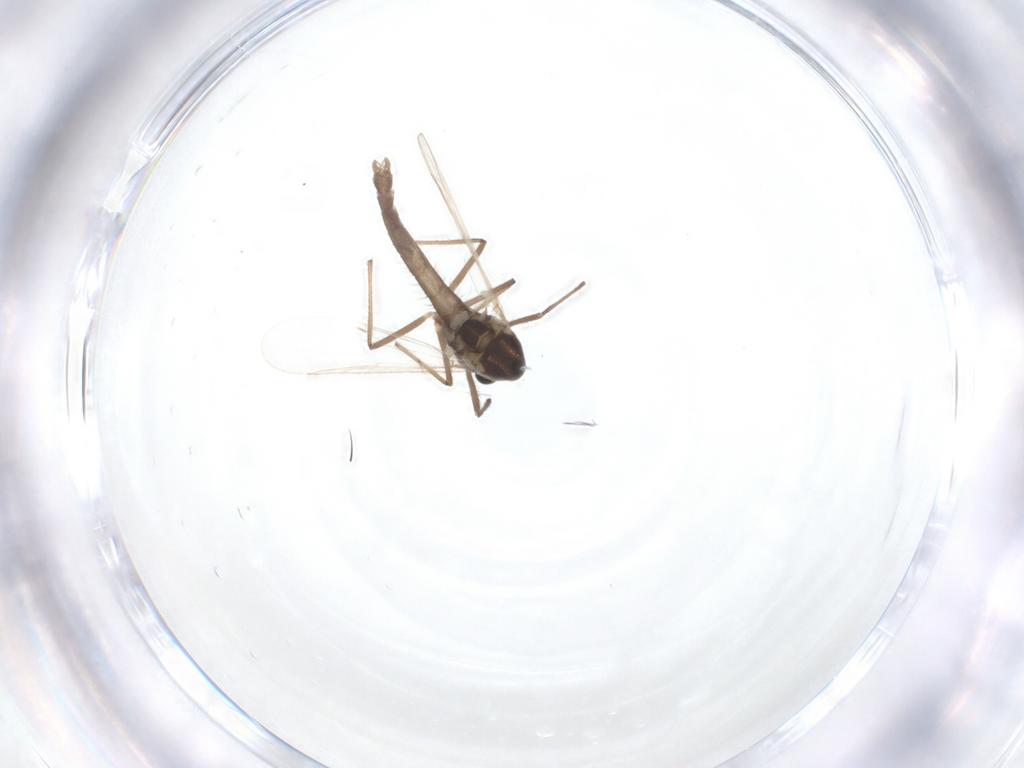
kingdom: Animalia
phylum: Arthropoda
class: Insecta
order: Diptera
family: Chironomidae
